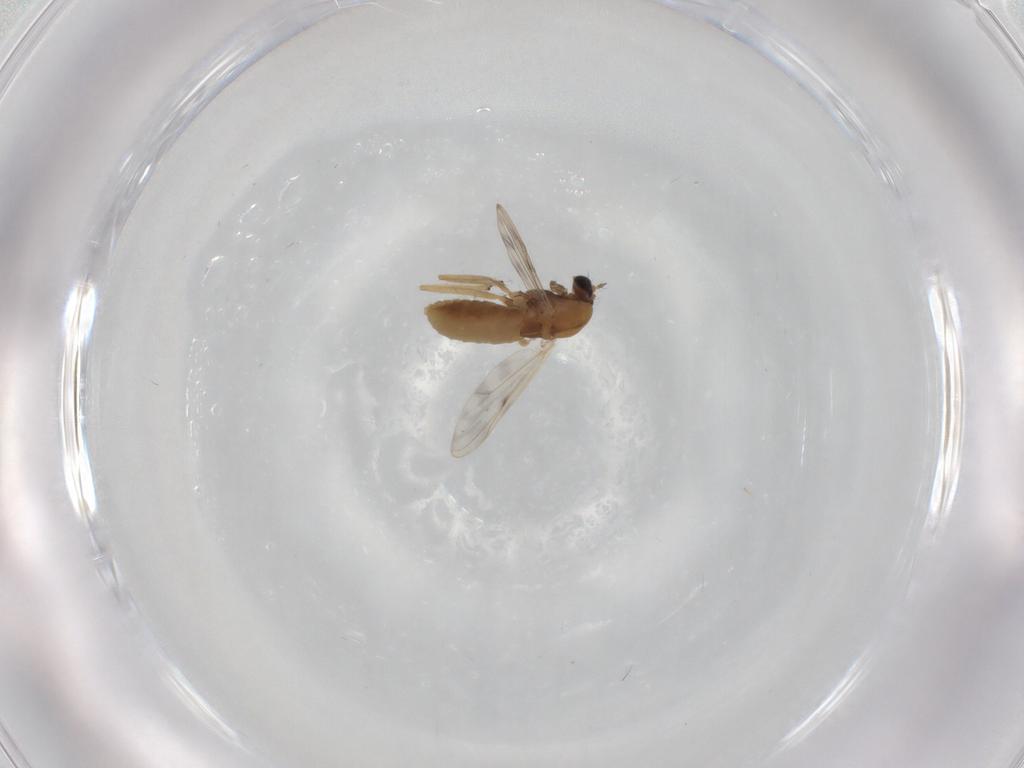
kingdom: Animalia
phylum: Arthropoda
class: Insecta
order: Diptera
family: Chironomidae
